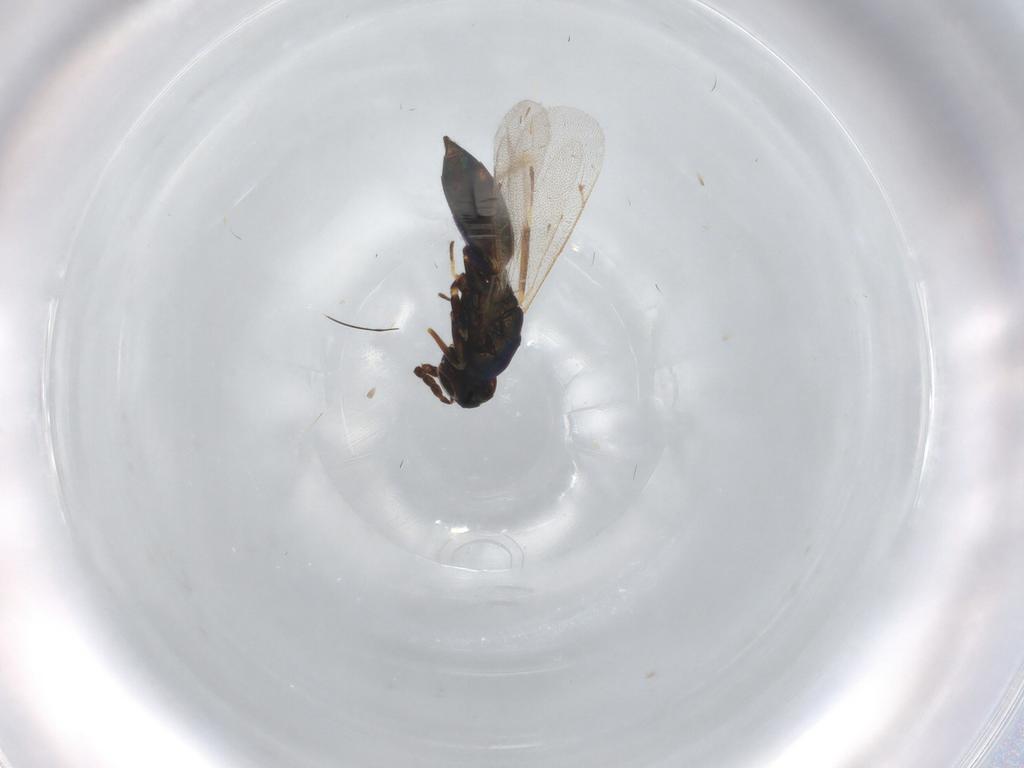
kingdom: Animalia
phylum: Arthropoda
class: Insecta
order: Hymenoptera
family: Eulophidae
